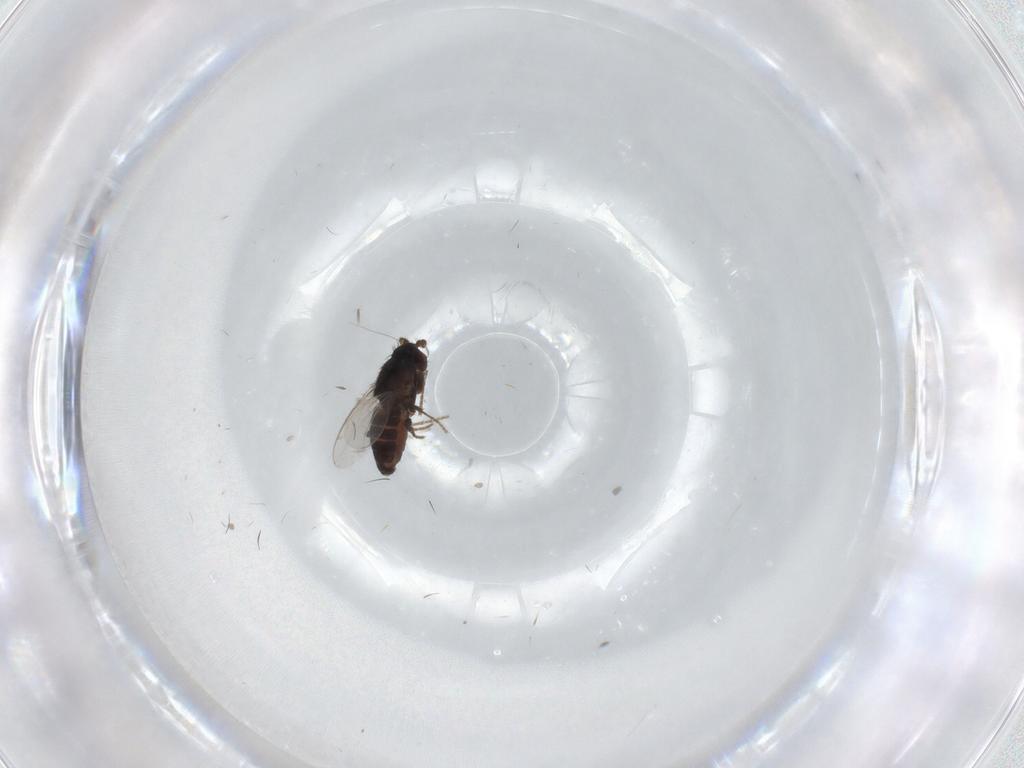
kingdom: Animalia
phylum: Arthropoda
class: Insecta
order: Diptera
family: Sphaeroceridae
